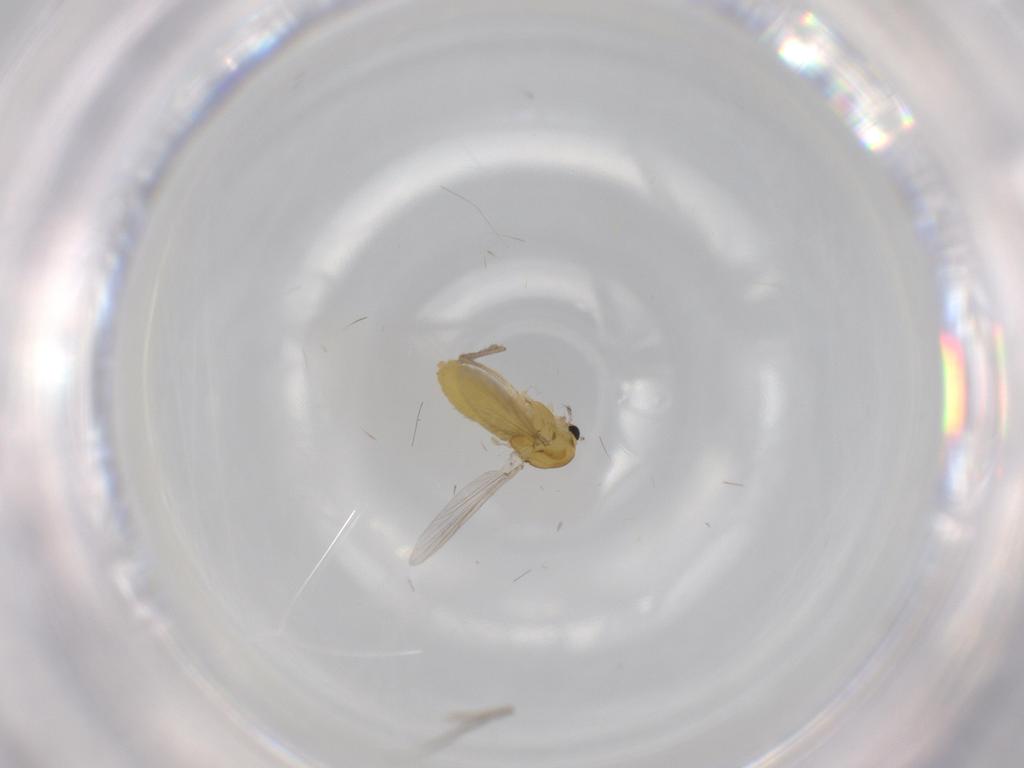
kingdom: Animalia
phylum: Arthropoda
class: Insecta
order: Diptera
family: Chironomidae
